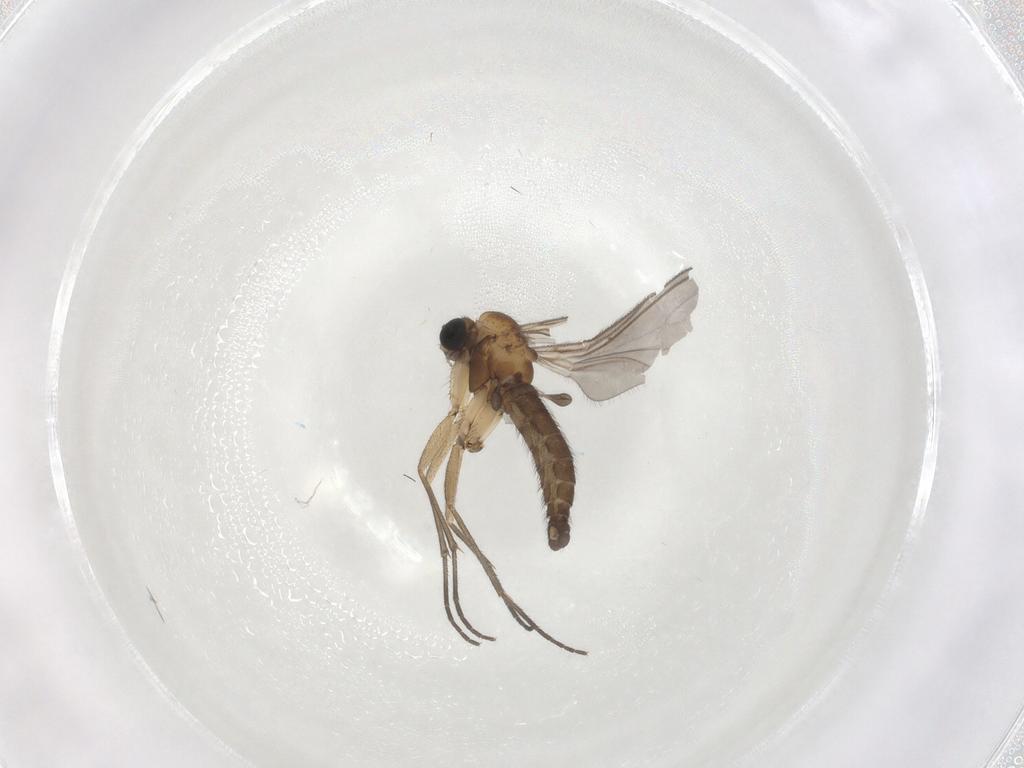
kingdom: Animalia
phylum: Arthropoda
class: Insecta
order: Diptera
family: Sciaridae
